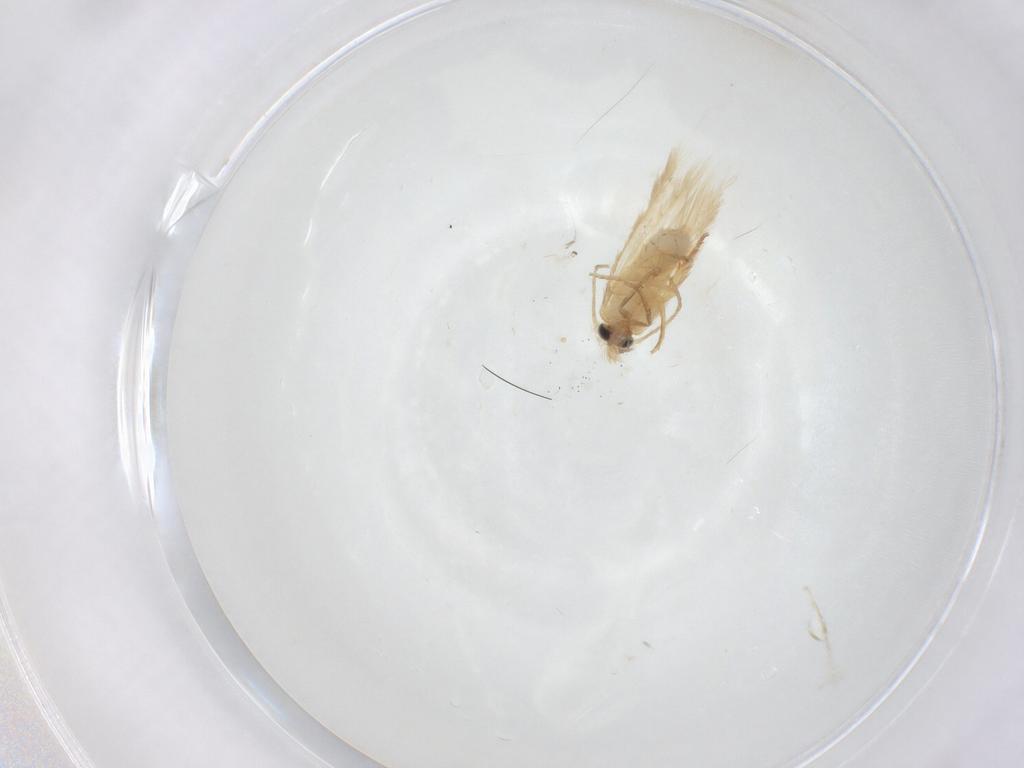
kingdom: Animalia
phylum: Arthropoda
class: Insecta
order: Lepidoptera
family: Nepticulidae
